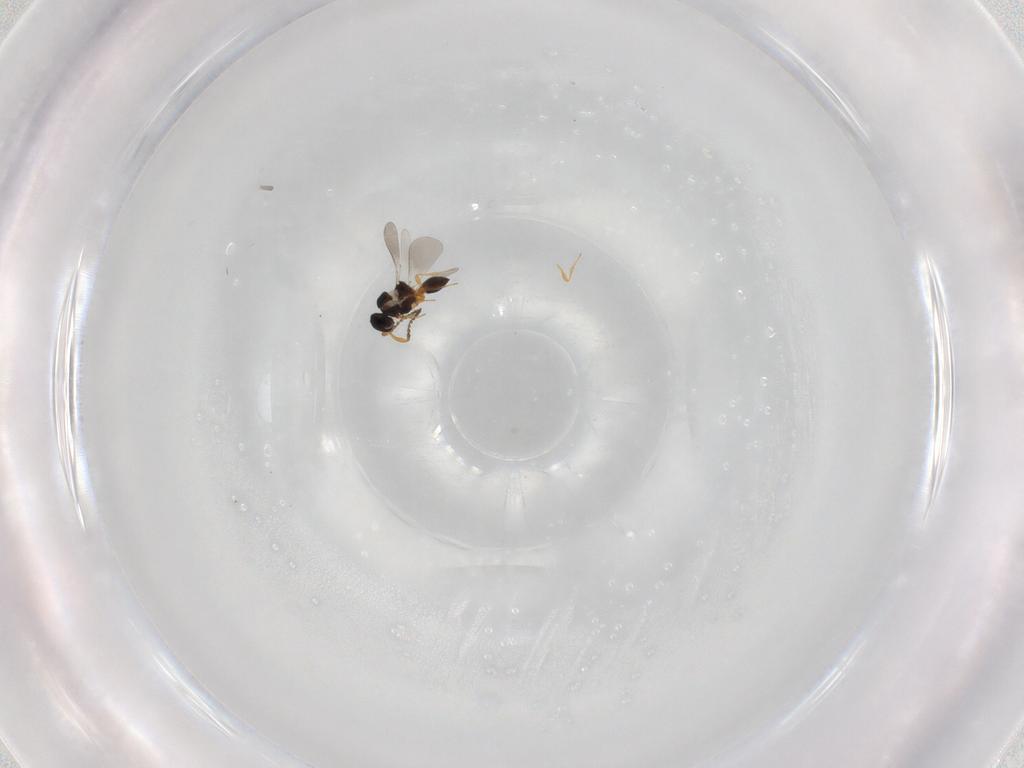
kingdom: Animalia
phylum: Arthropoda
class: Insecta
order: Hymenoptera
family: Platygastridae
